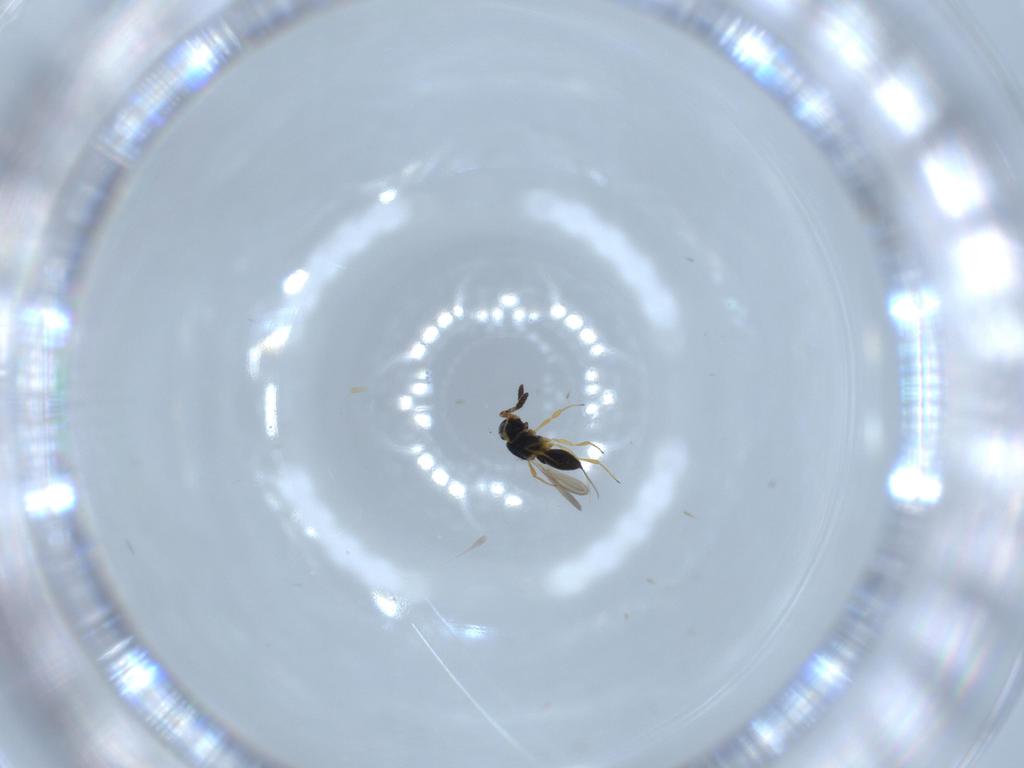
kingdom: Animalia
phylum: Arthropoda
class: Insecta
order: Hymenoptera
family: Scelionidae
